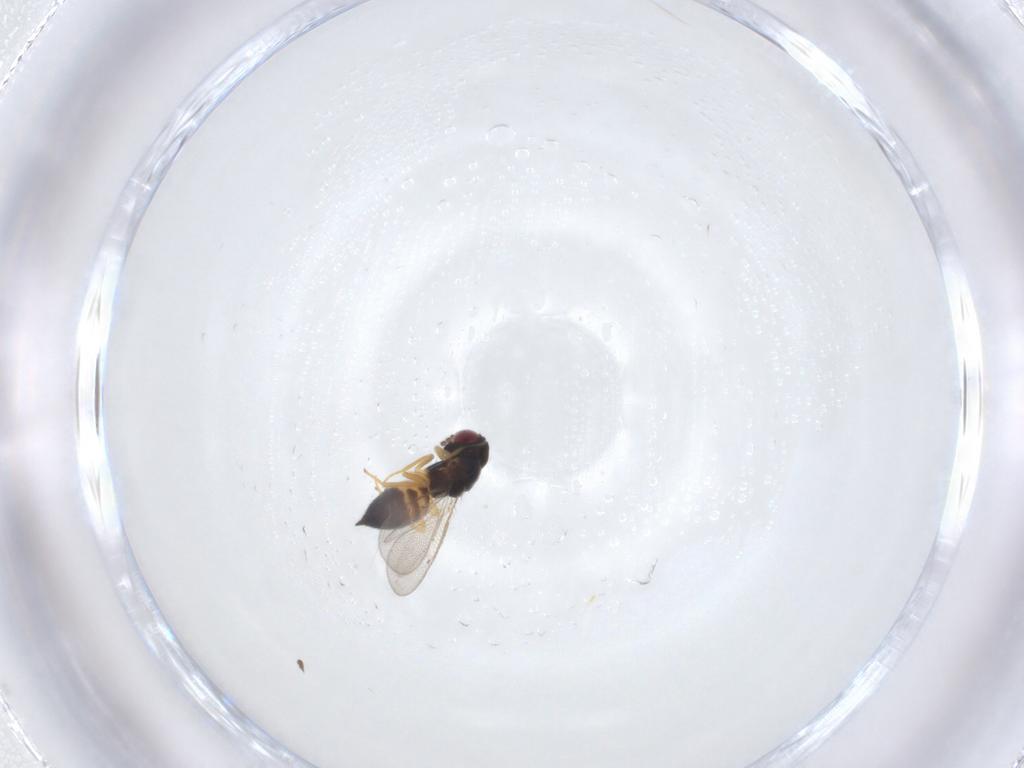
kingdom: Animalia
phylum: Arthropoda
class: Insecta
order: Hymenoptera
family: Eulophidae
